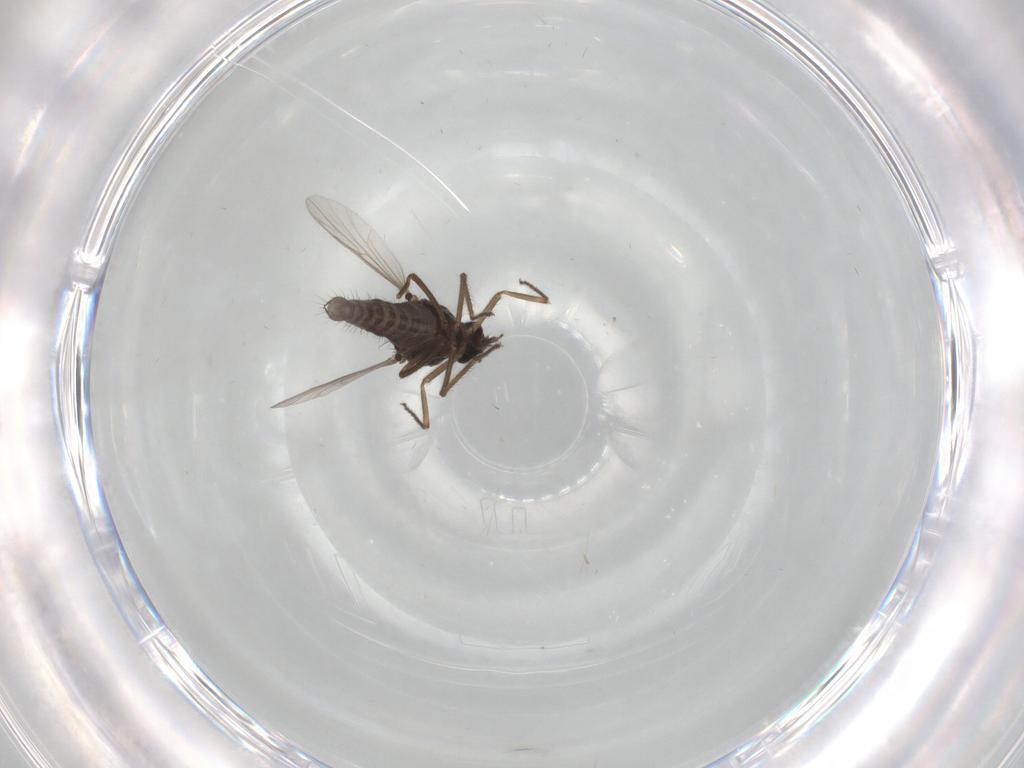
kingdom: Animalia
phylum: Arthropoda
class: Insecta
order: Diptera
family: Ceratopogonidae
